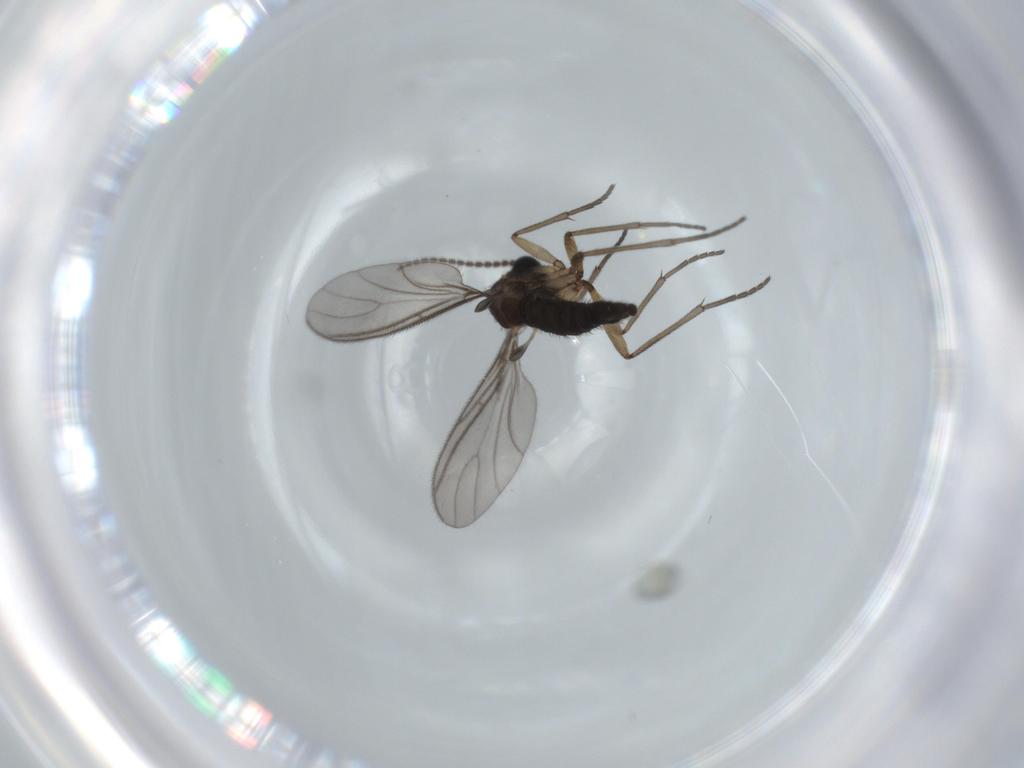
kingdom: Animalia
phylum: Arthropoda
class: Insecta
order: Diptera
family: Sciaridae
